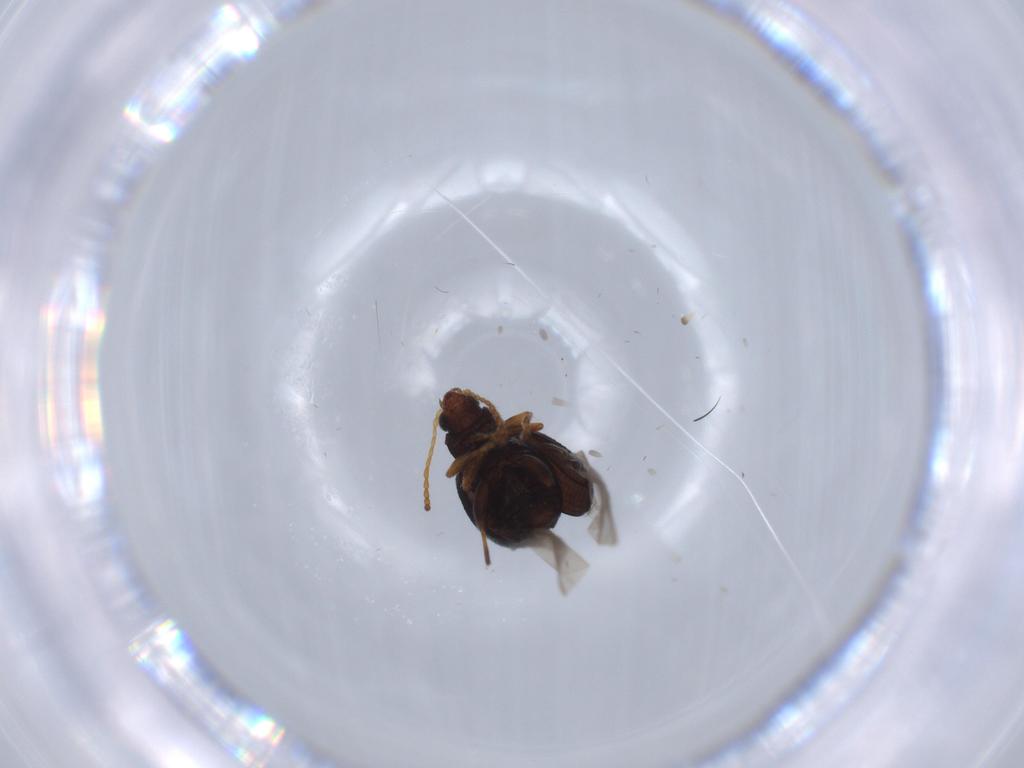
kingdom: Animalia
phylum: Arthropoda
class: Insecta
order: Coleoptera
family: Chrysomelidae
